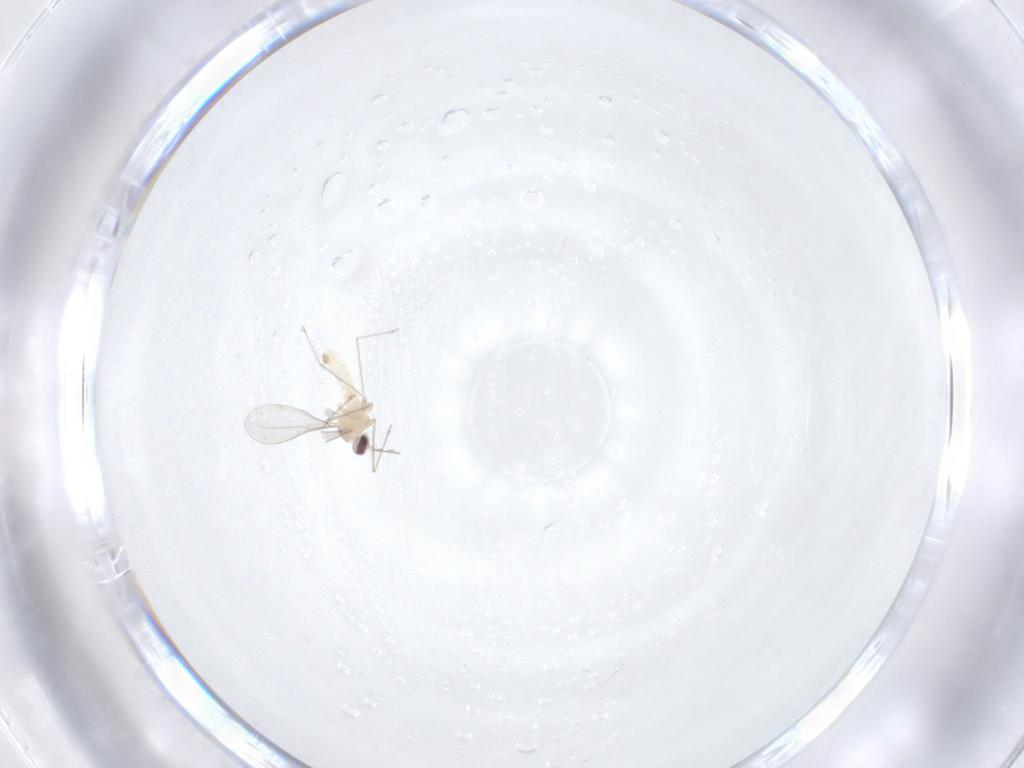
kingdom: Animalia
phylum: Arthropoda
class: Insecta
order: Diptera
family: Cecidomyiidae
